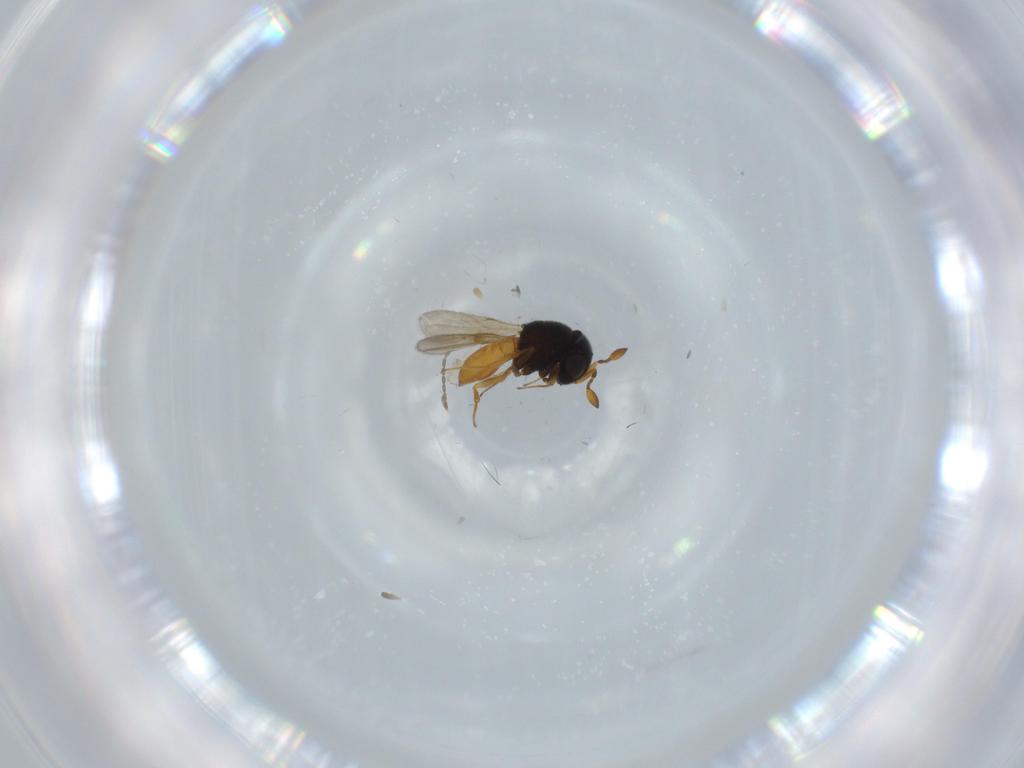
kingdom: Animalia
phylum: Arthropoda
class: Insecta
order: Hymenoptera
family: Scelionidae
